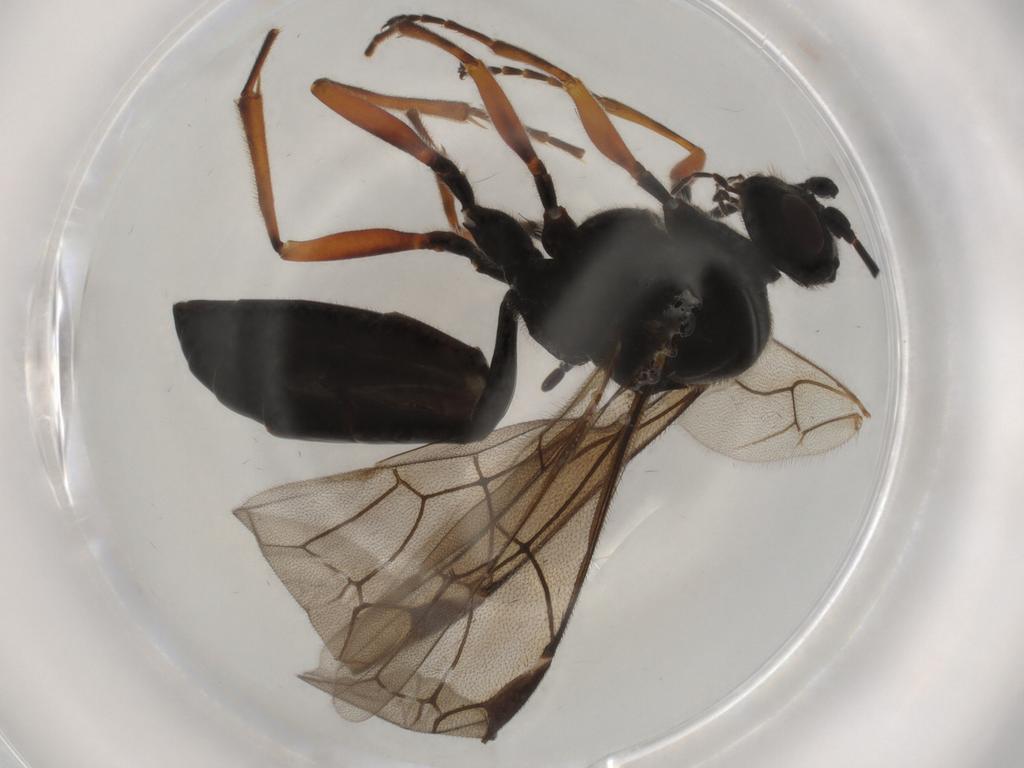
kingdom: Animalia
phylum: Arthropoda
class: Insecta
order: Hymenoptera
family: Ichneumonidae
